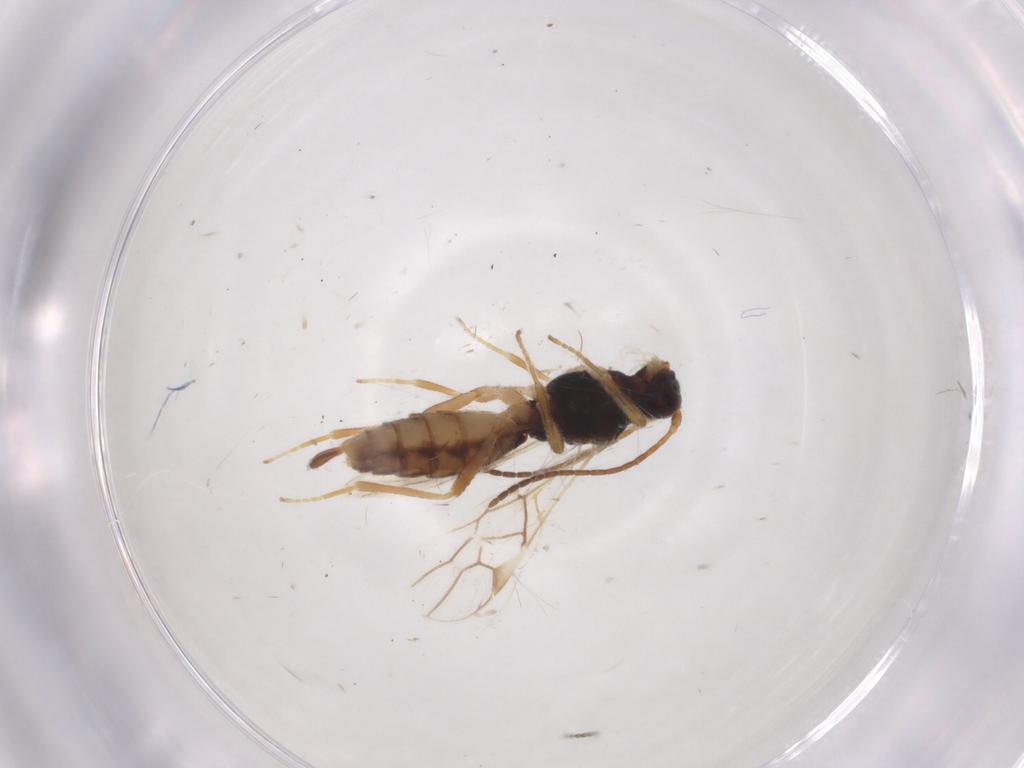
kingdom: Animalia
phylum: Arthropoda
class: Insecta
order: Hymenoptera
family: Braconidae
